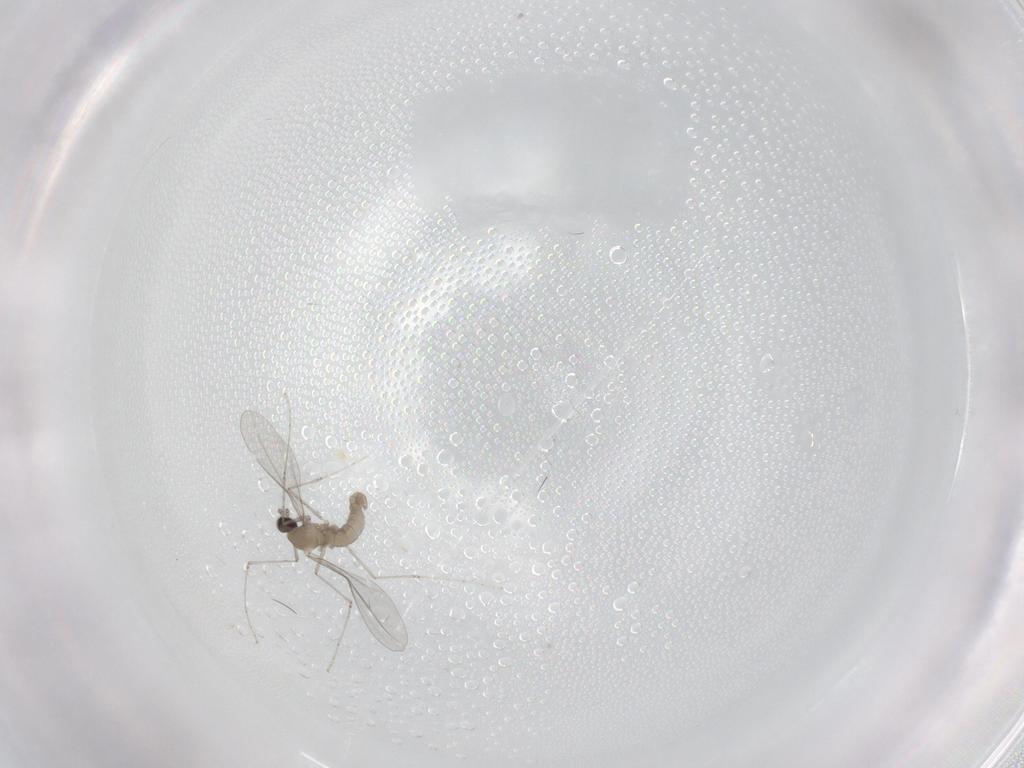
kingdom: Animalia
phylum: Arthropoda
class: Insecta
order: Diptera
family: Cecidomyiidae
